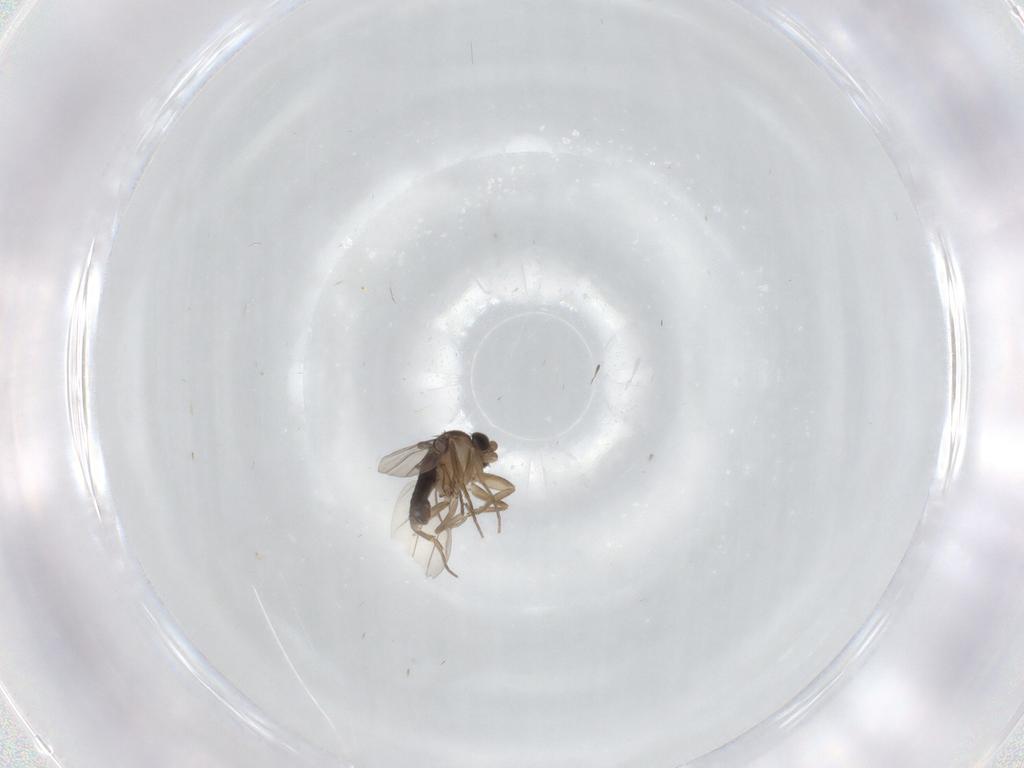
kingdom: Animalia
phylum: Arthropoda
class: Insecta
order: Diptera
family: Phoridae
